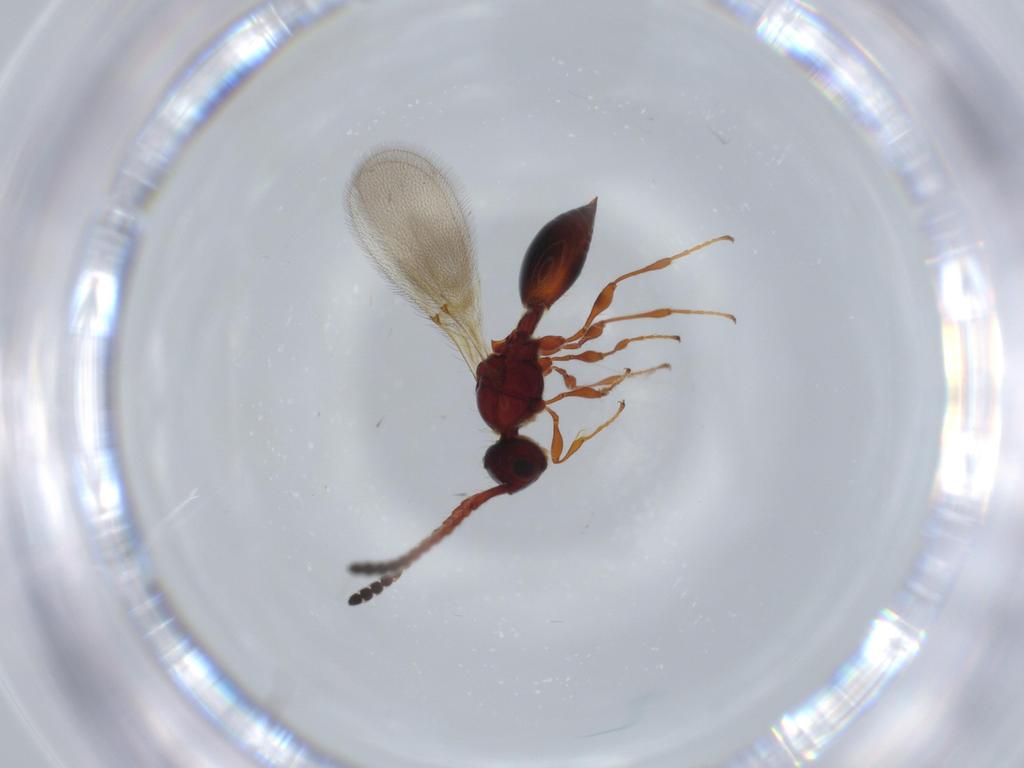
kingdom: Animalia
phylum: Arthropoda
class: Insecta
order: Hymenoptera
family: Diapriidae
